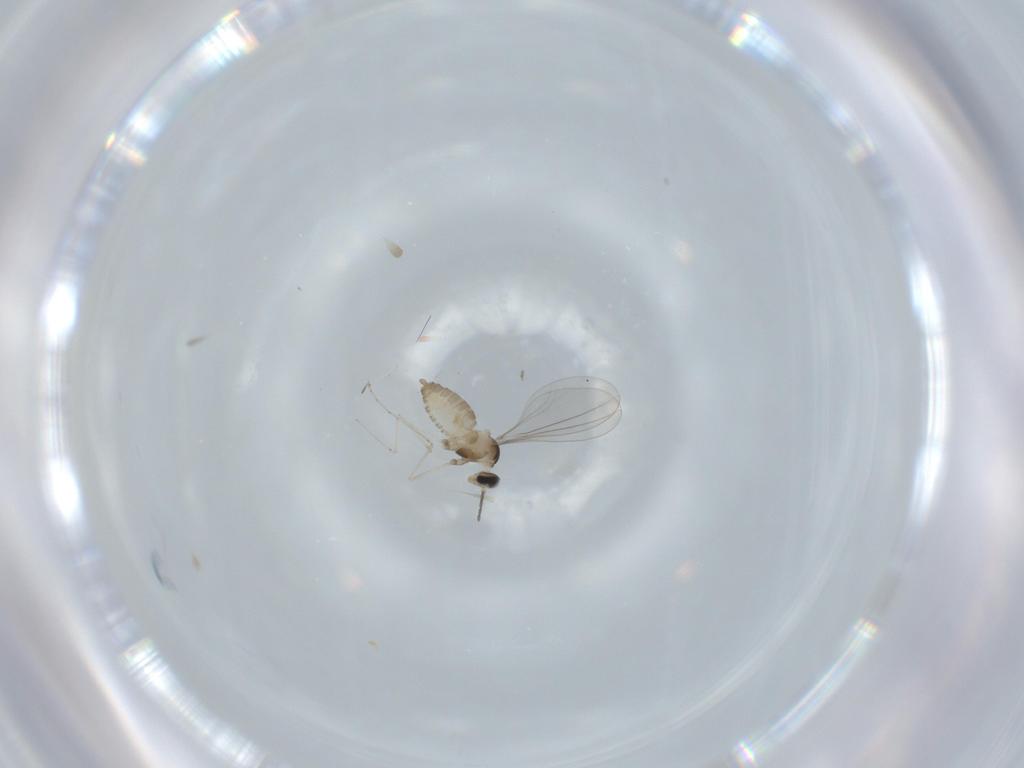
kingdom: Animalia
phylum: Arthropoda
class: Insecta
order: Diptera
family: Cecidomyiidae
